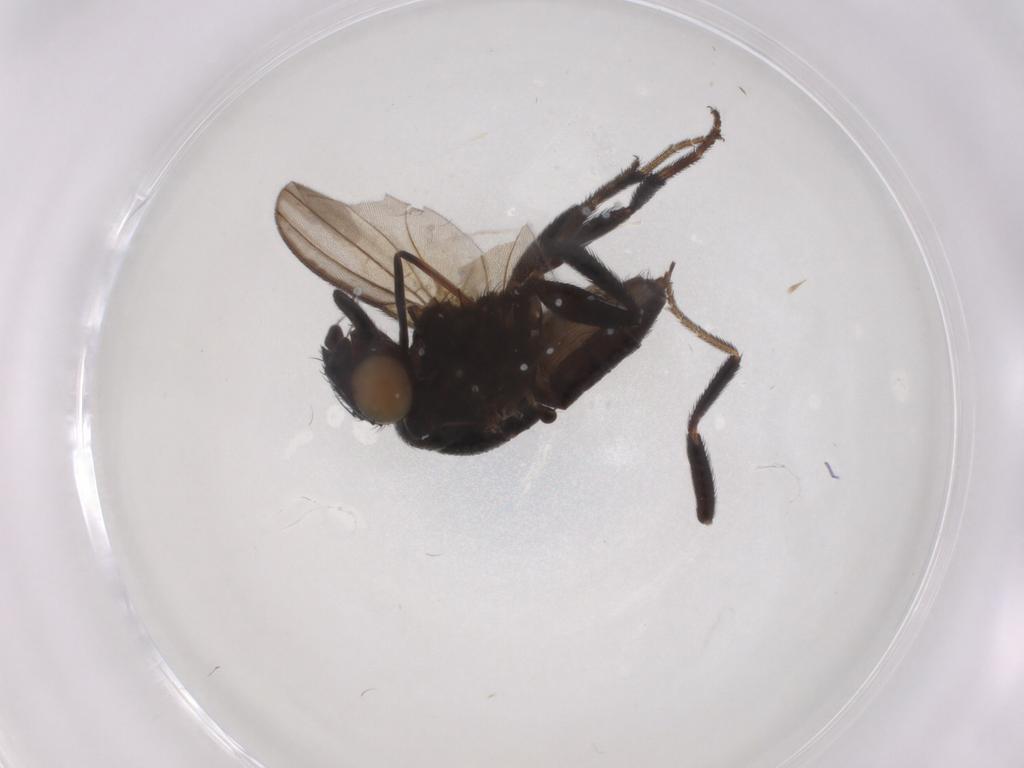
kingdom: Animalia
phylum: Arthropoda
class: Insecta
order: Diptera
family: Milichiidae
